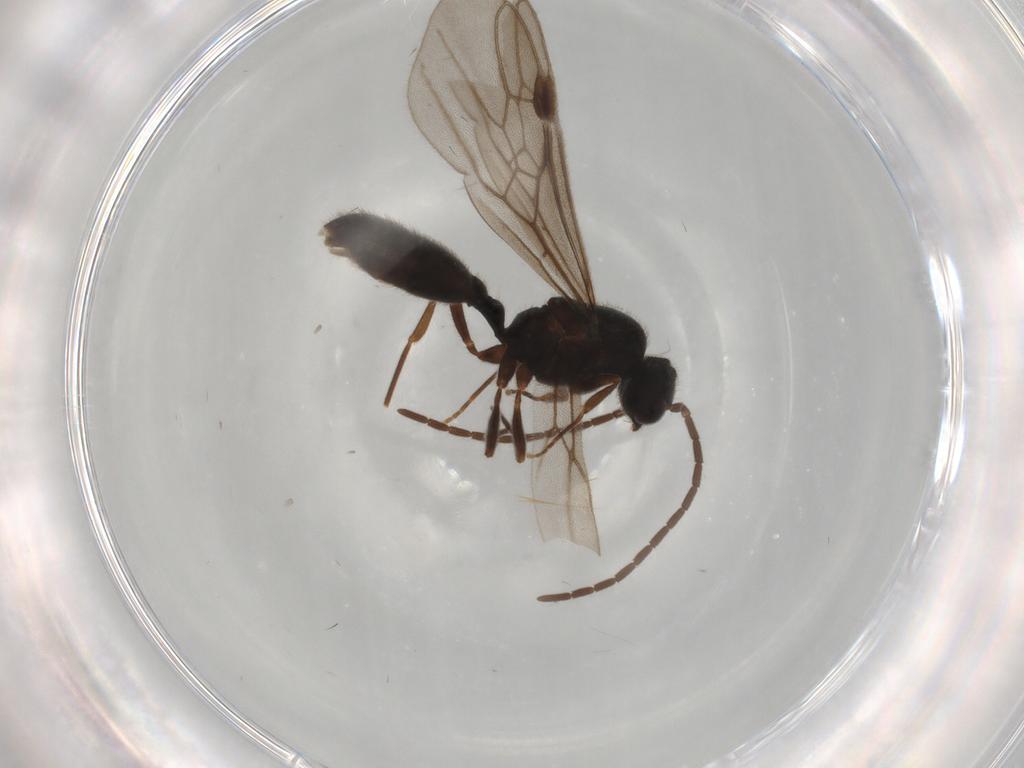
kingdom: Animalia
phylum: Arthropoda
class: Insecta
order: Hymenoptera
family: Formicidae
